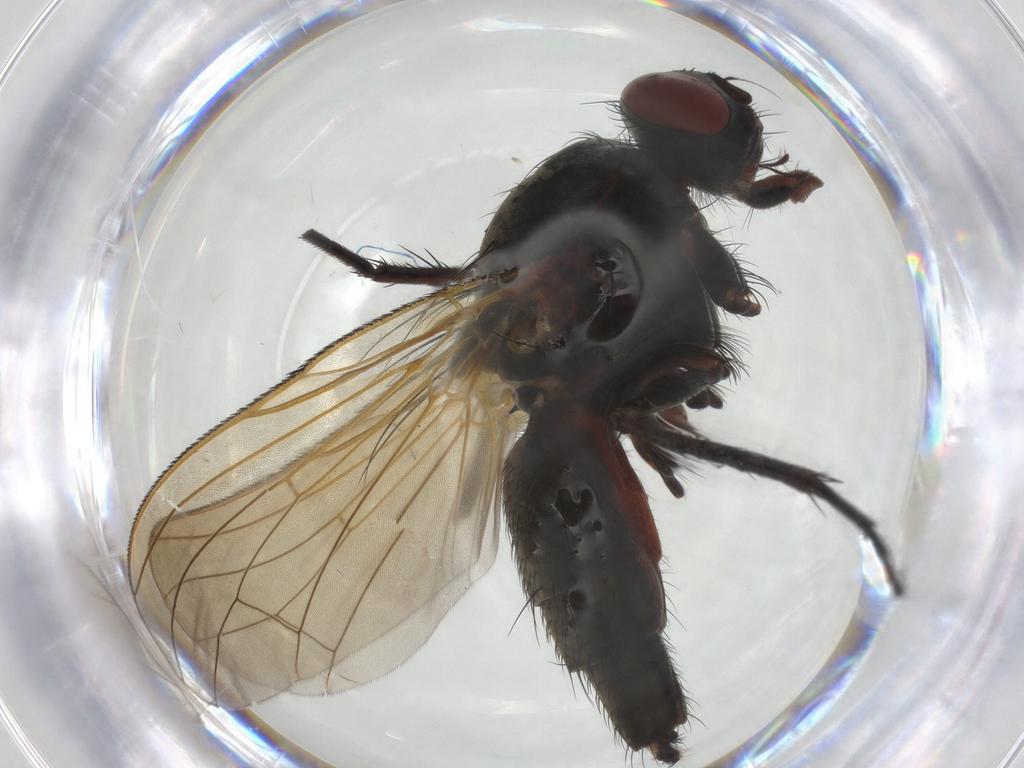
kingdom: Animalia
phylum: Arthropoda
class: Insecta
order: Diptera
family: Anthomyiidae
